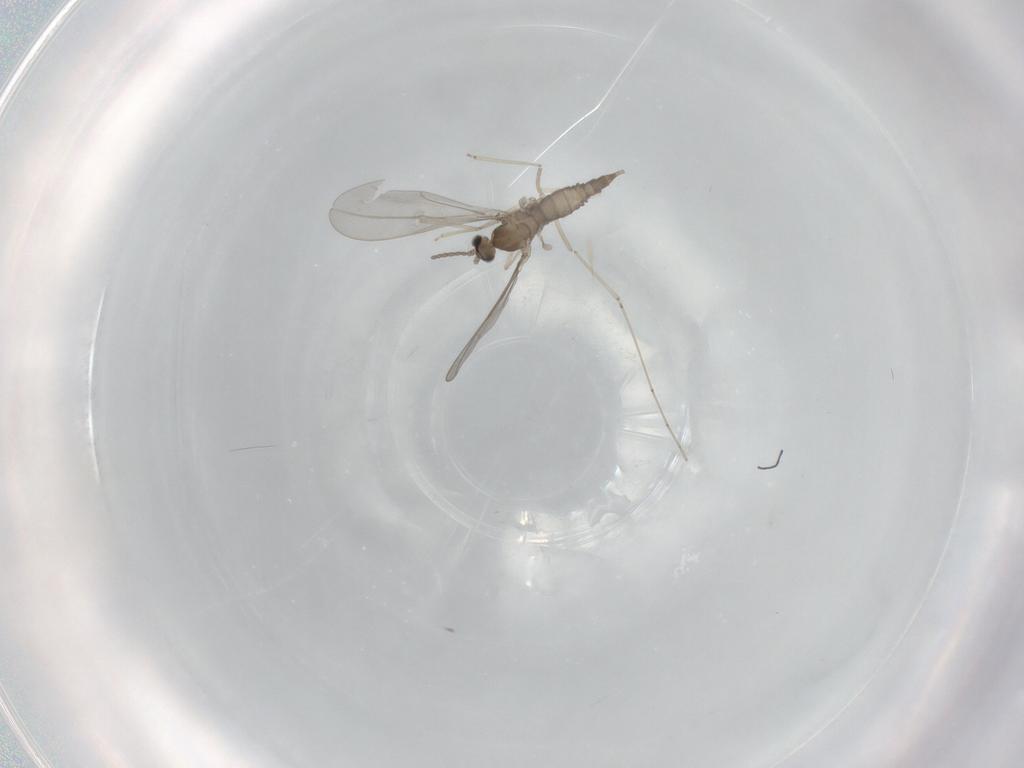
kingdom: Animalia
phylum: Arthropoda
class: Insecta
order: Diptera
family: Cecidomyiidae
